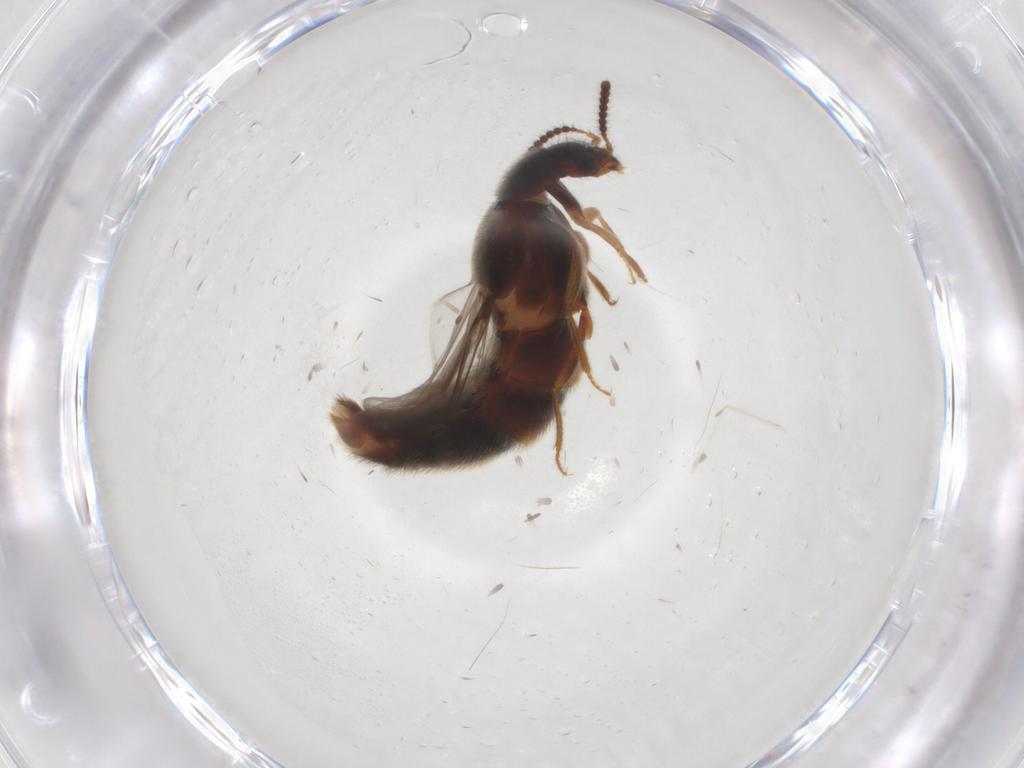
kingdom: Animalia
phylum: Arthropoda
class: Insecta
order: Coleoptera
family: Staphylinidae
